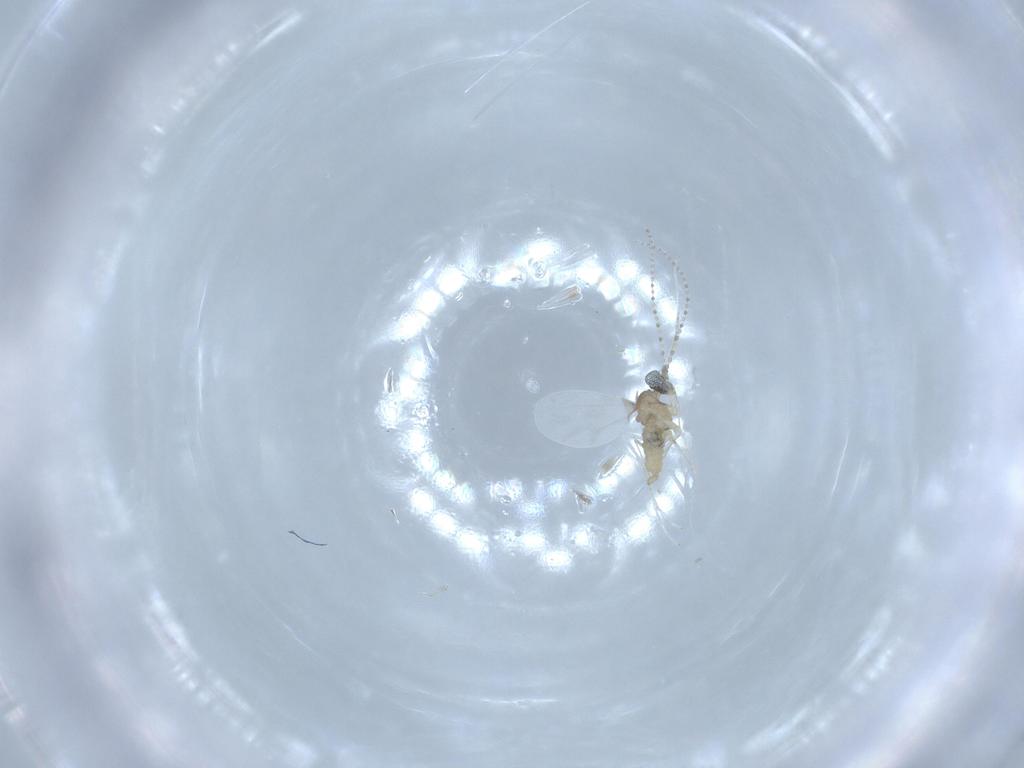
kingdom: Animalia
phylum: Arthropoda
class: Insecta
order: Diptera
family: Cecidomyiidae
